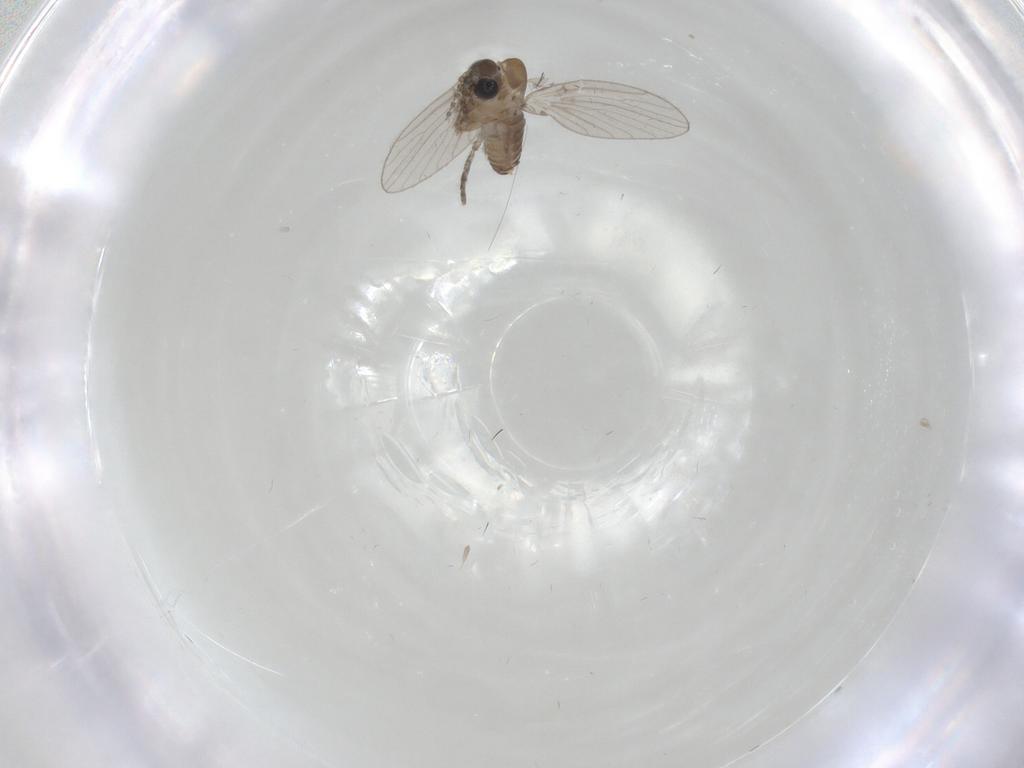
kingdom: Animalia
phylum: Arthropoda
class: Insecta
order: Diptera
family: Psychodidae
